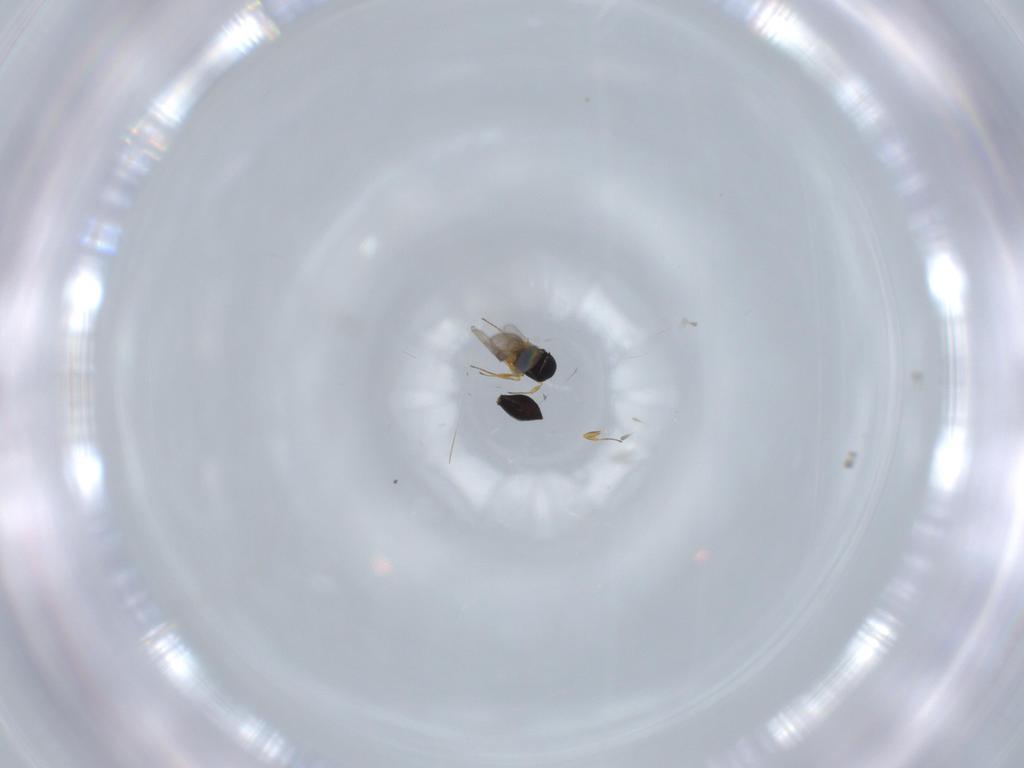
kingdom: Animalia
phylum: Arthropoda
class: Insecta
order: Hymenoptera
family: Scelionidae
